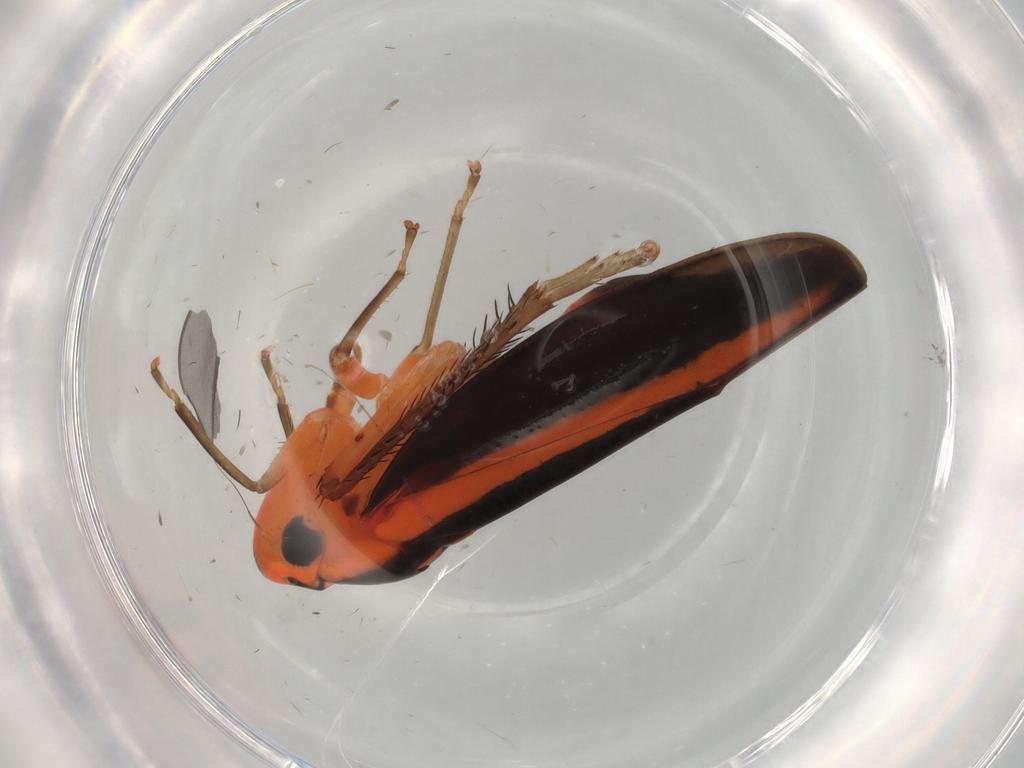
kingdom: Animalia
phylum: Arthropoda
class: Insecta
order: Hemiptera
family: Cicadellidae
